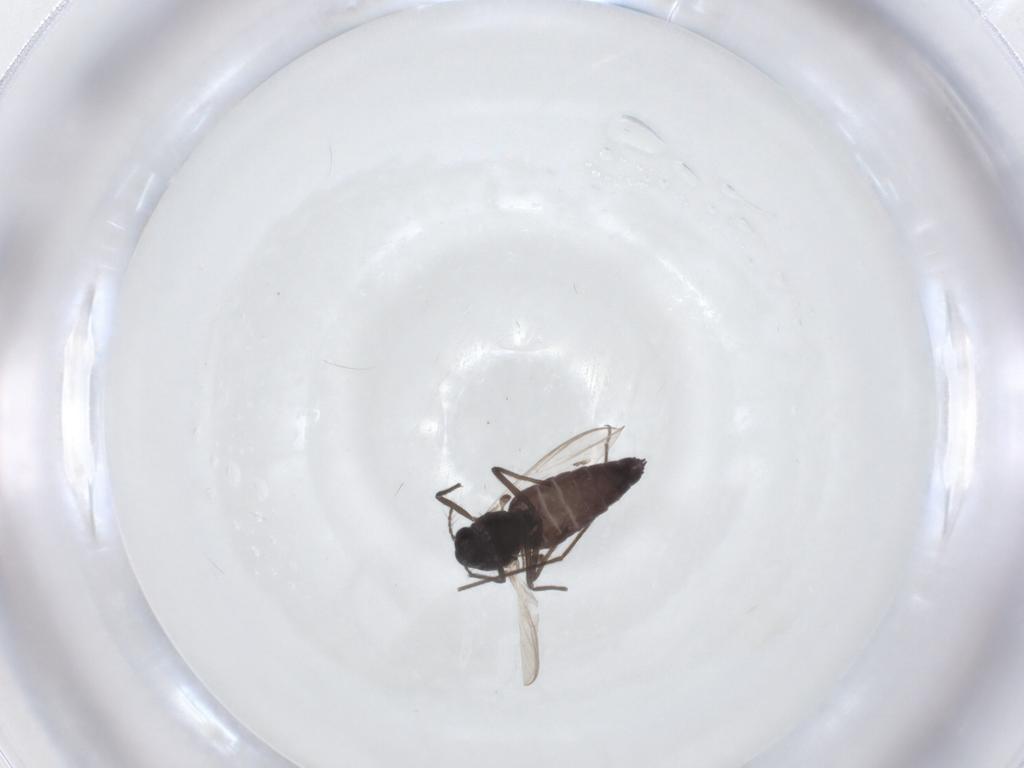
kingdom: Animalia
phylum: Arthropoda
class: Insecta
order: Diptera
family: Chironomidae
